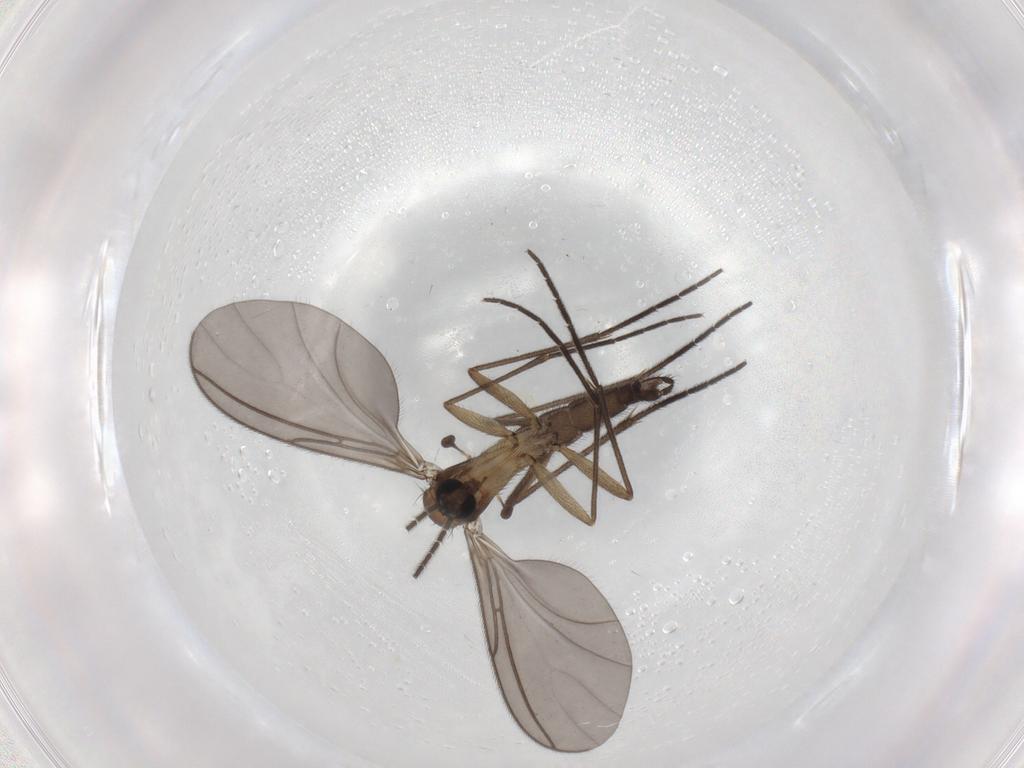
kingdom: Animalia
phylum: Arthropoda
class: Insecta
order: Diptera
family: Sciaridae
